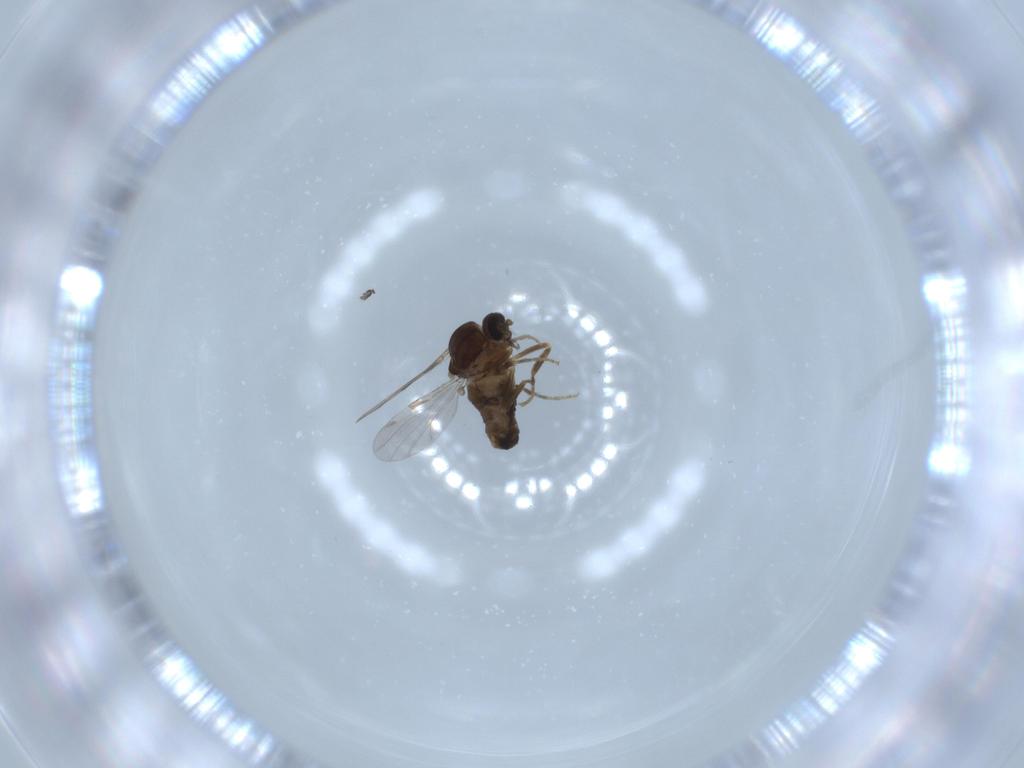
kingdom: Animalia
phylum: Arthropoda
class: Insecta
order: Diptera
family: Ceratopogonidae
